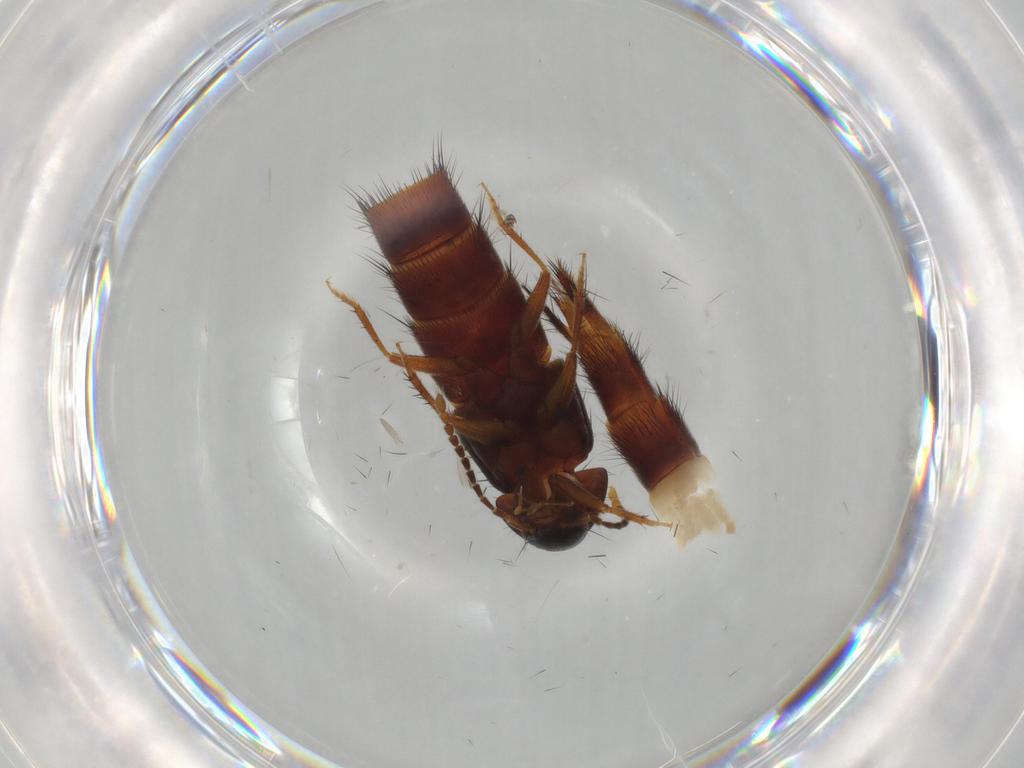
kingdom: Animalia
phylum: Arthropoda
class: Insecta
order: Coleoptera
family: Staphylinidae
